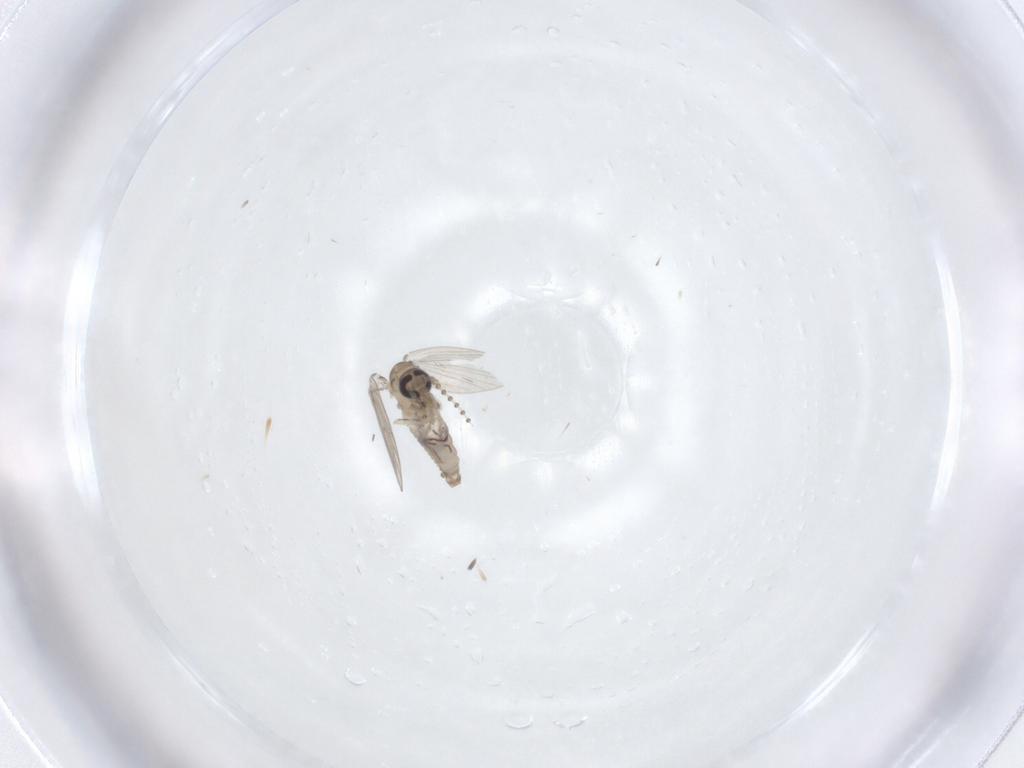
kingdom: Animalia
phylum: Arthropoda
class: Insecta
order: Diptera
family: Psychodidae
